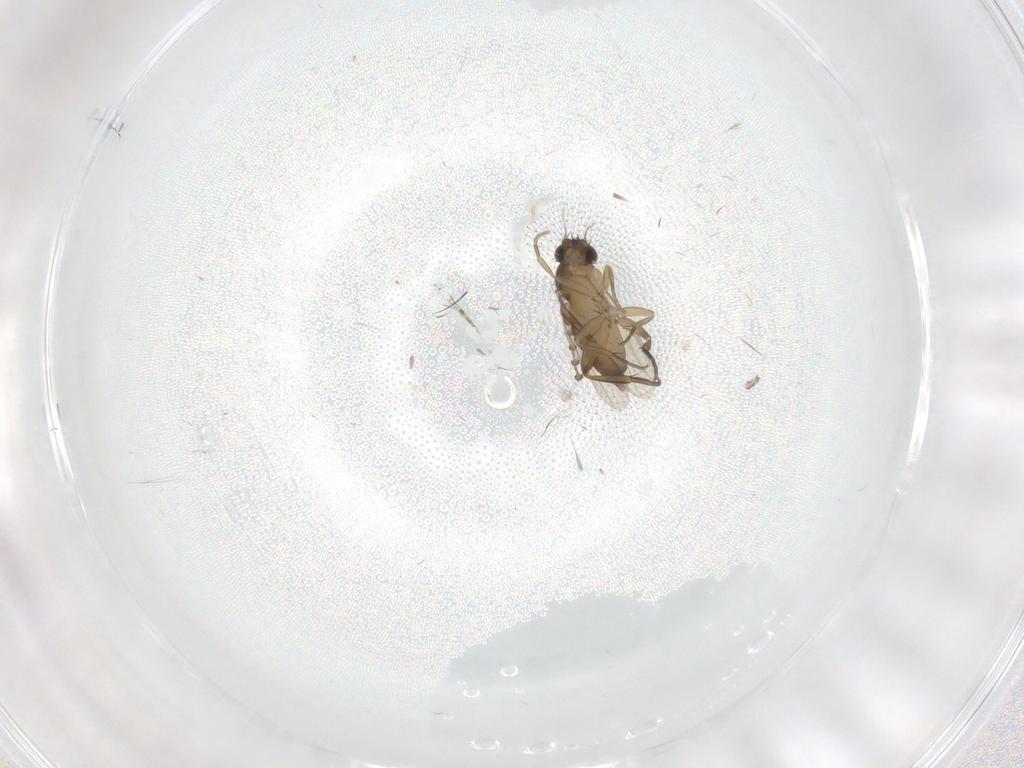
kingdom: Animalia
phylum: Arthropoda
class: Insecta
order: Diptera
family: Phoridae
